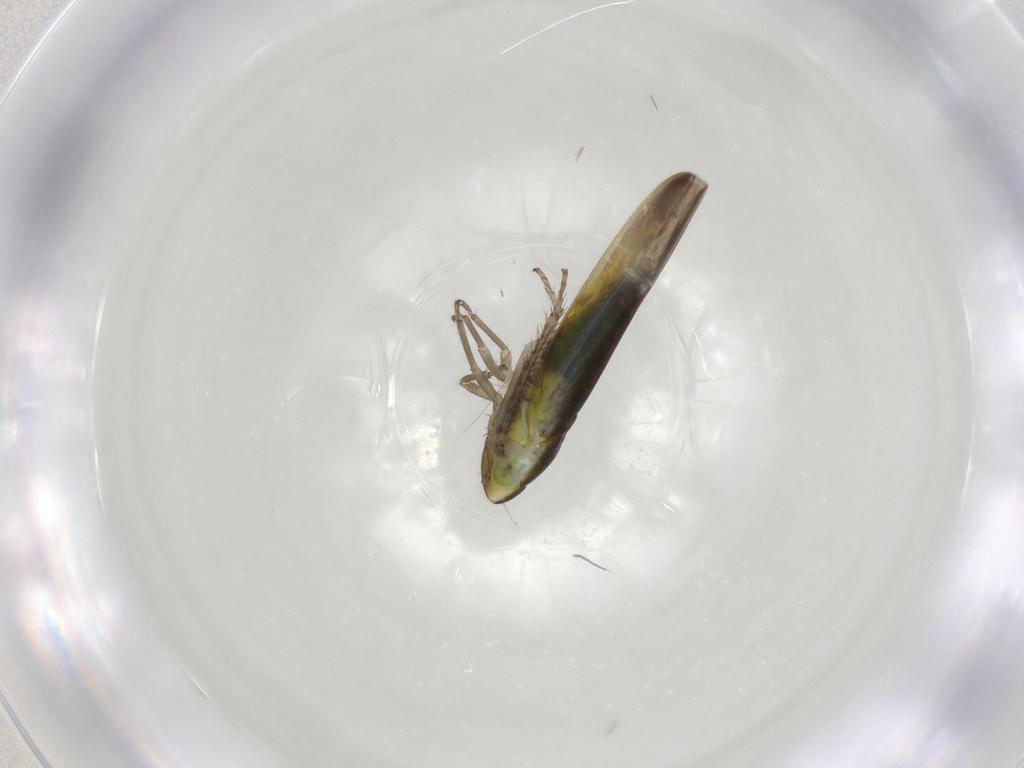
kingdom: Animalia
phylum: Arthropoda
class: Insecta
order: Hemiptera
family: Cicadellidae
